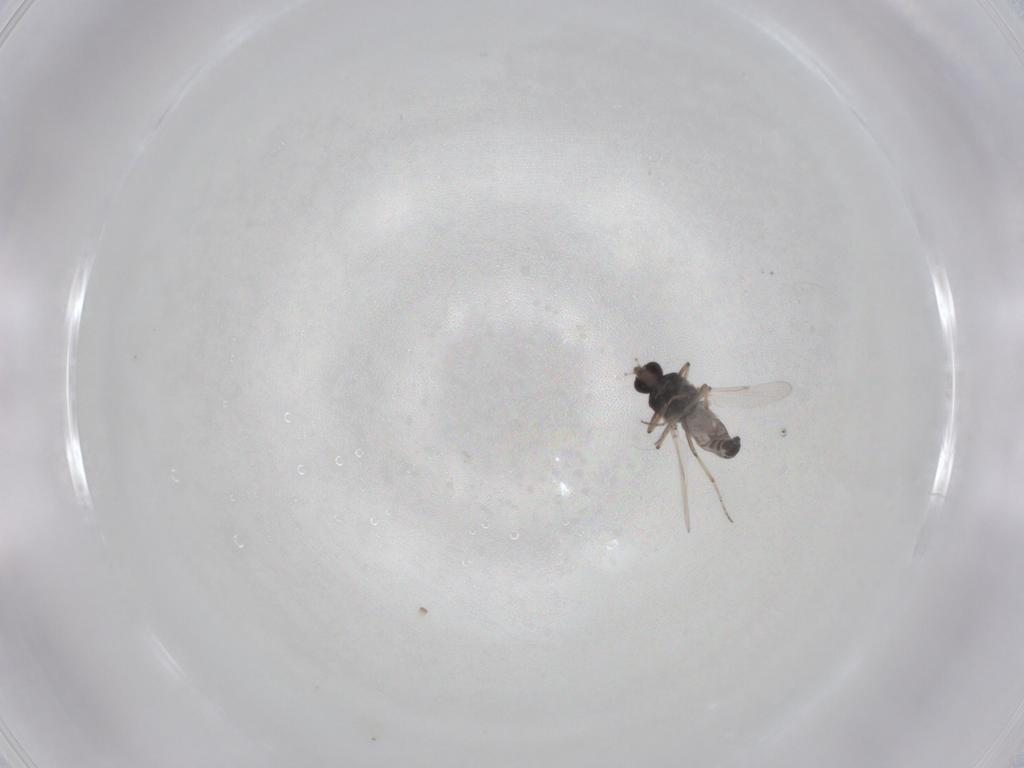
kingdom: Animalia
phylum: Arthropoda
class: Insecta
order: Diptera
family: Ceratopogonidae
